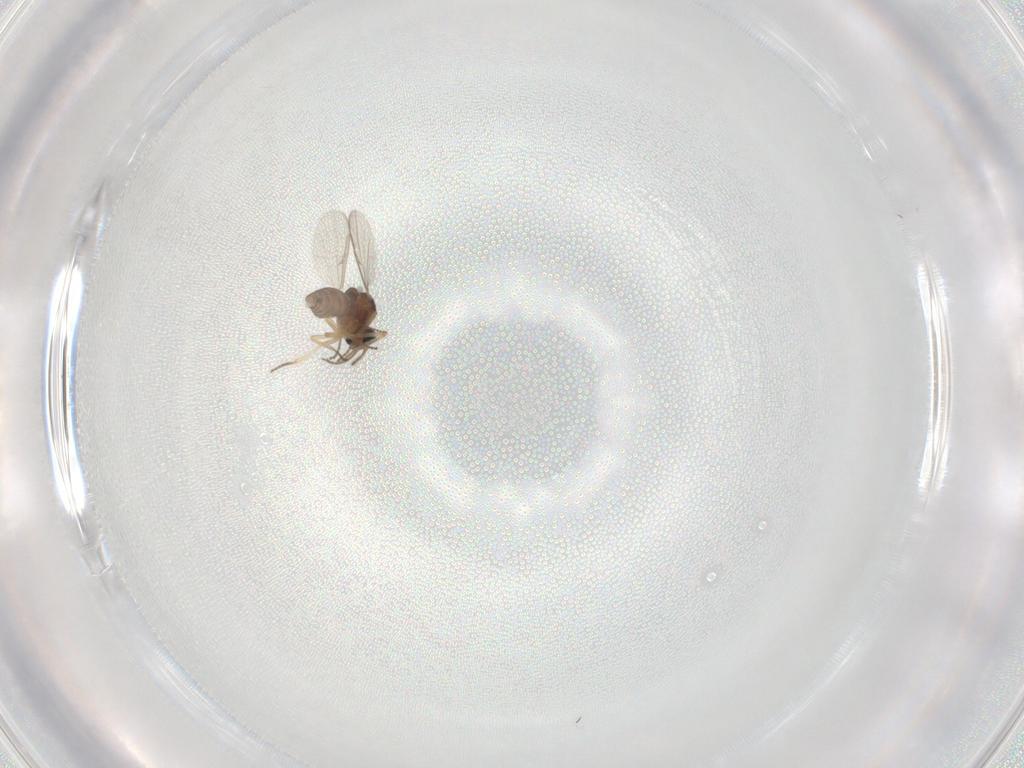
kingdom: Animalia
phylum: Arthropoda
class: Insecta
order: Diptera
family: Ceratopogonidae
